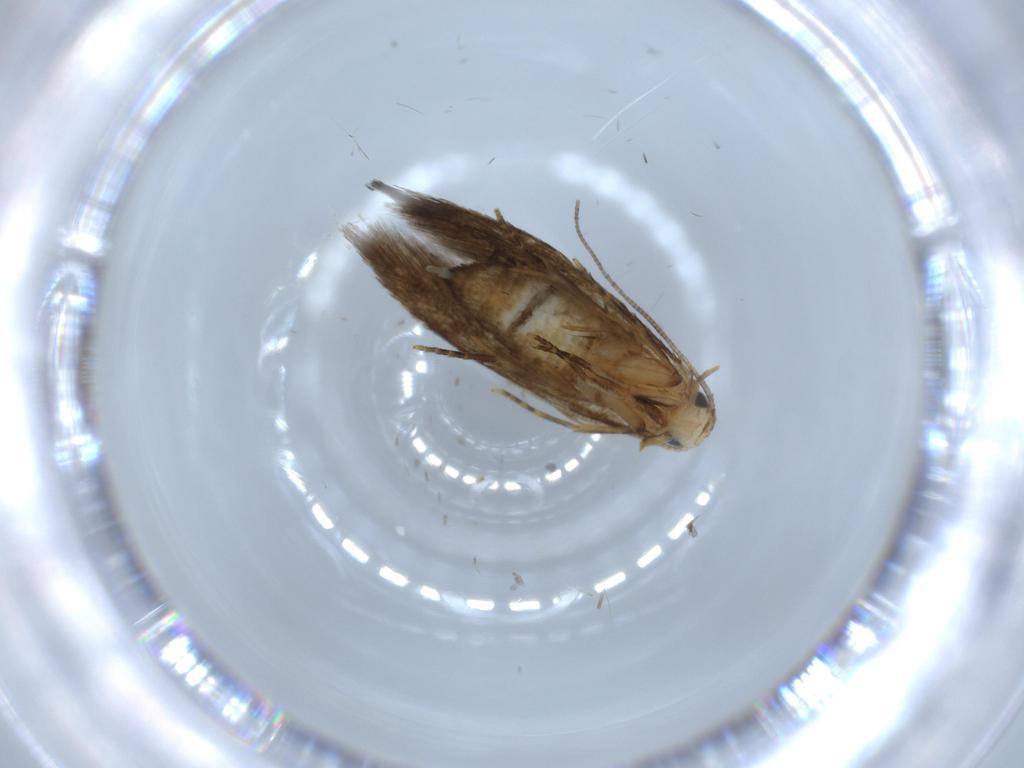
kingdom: Animalia
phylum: Arthropoda
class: Insecta
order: Lepidoptera
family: Tineidae
